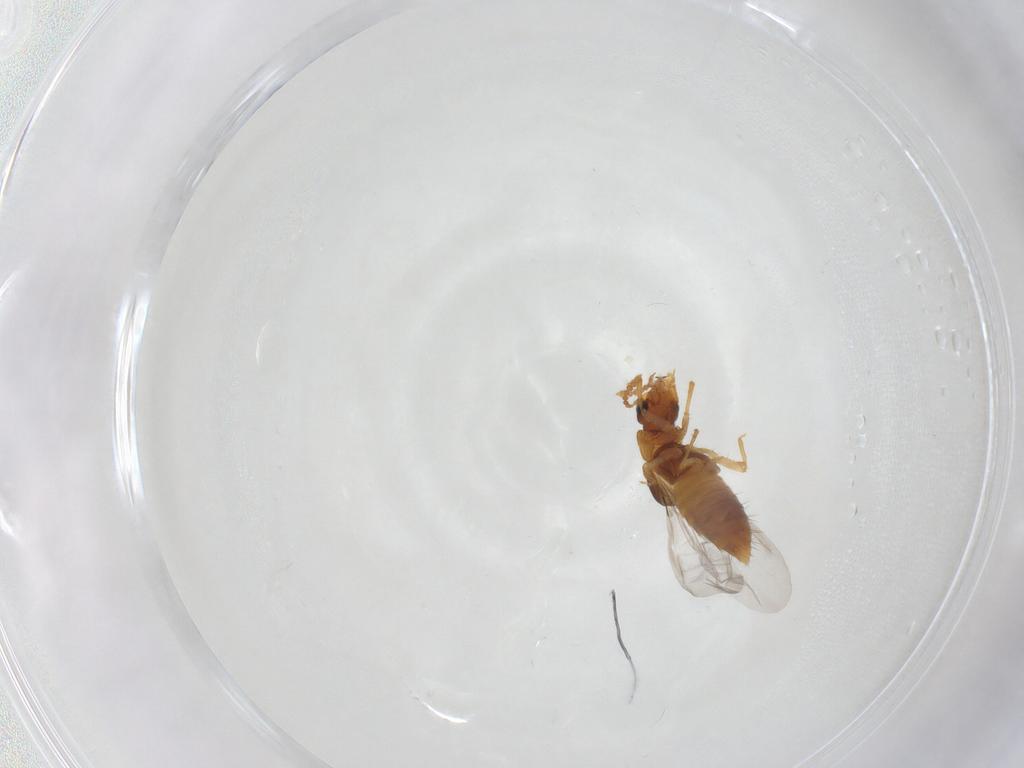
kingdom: Animalia
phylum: Arthropoda
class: Insecta
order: Coleoptera
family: Staphylinidae
